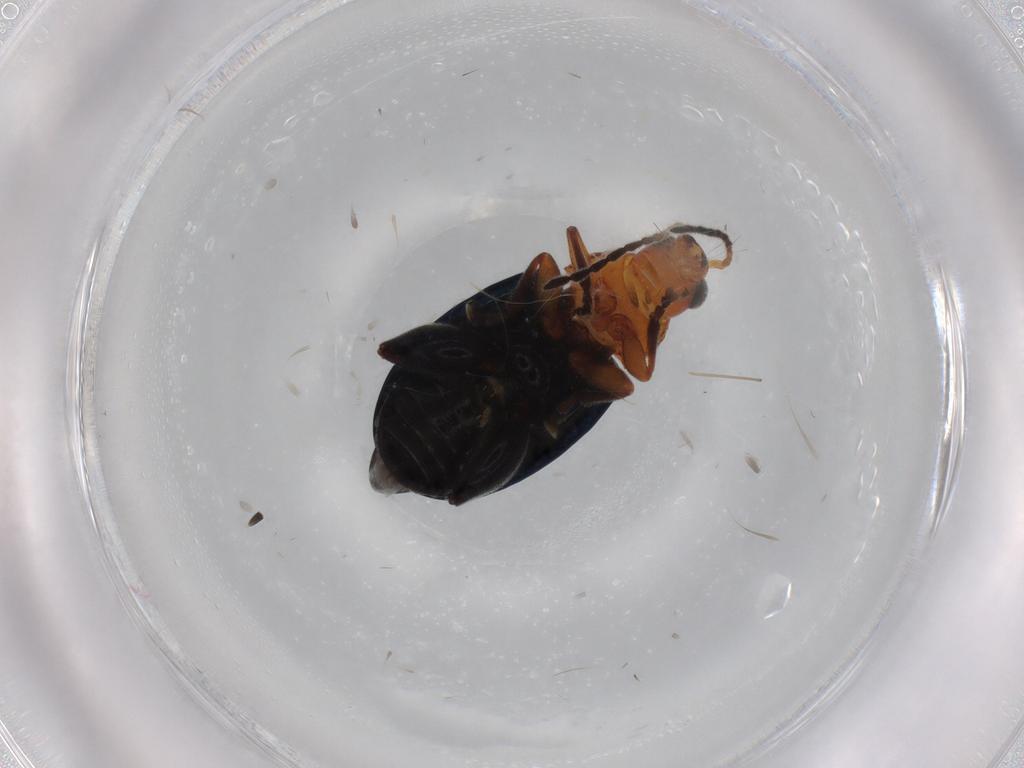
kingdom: Animalia
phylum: Arthropoda
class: Insecta
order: Coleoptera
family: Chrysomelidae
